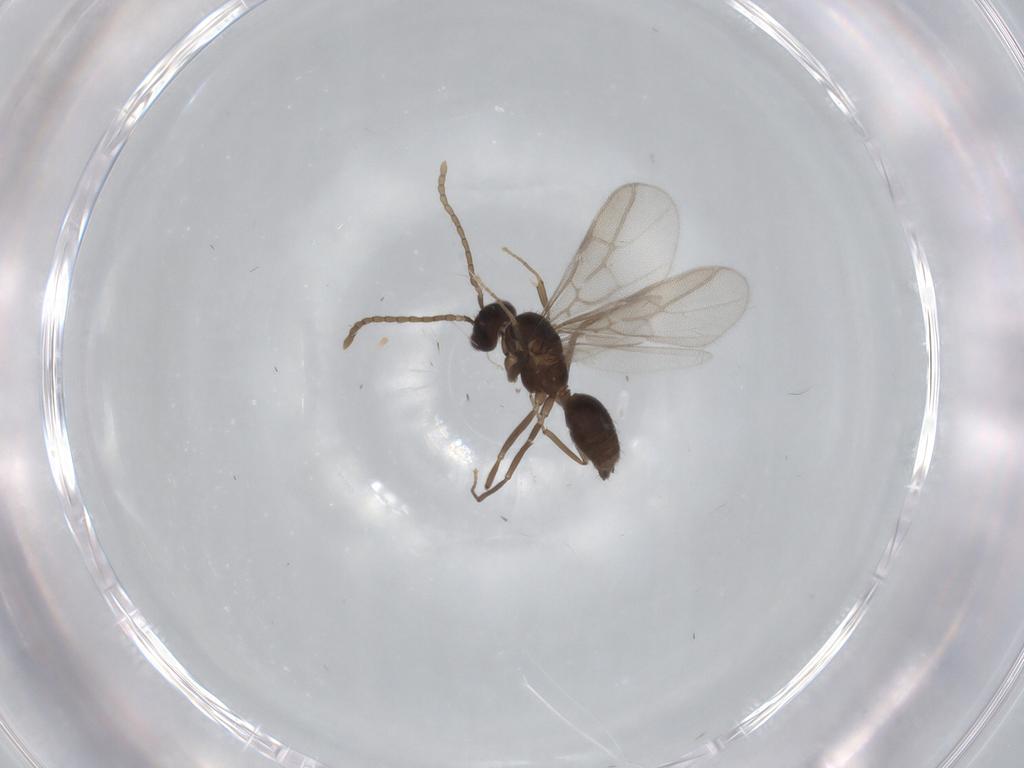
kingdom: Animalia
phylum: Arthropoda
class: Insecta
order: Hymenoptera
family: Formicidae
